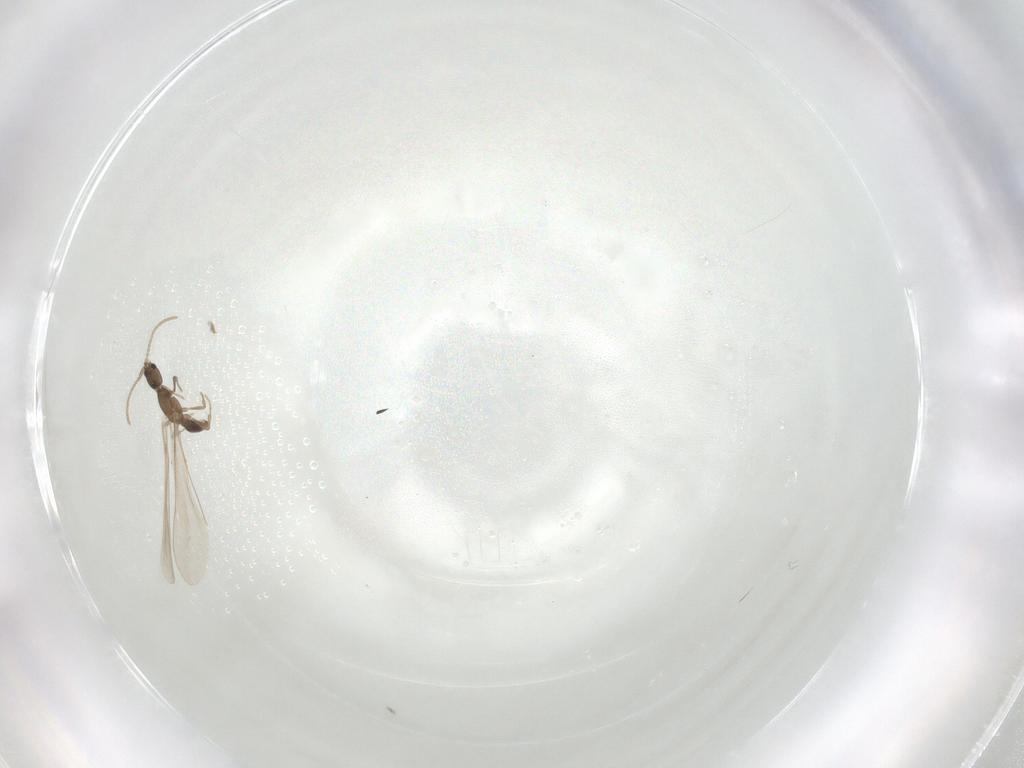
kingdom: Animalia
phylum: Arthropoda
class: Insecta
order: Hymenoptera
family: Formicidae
